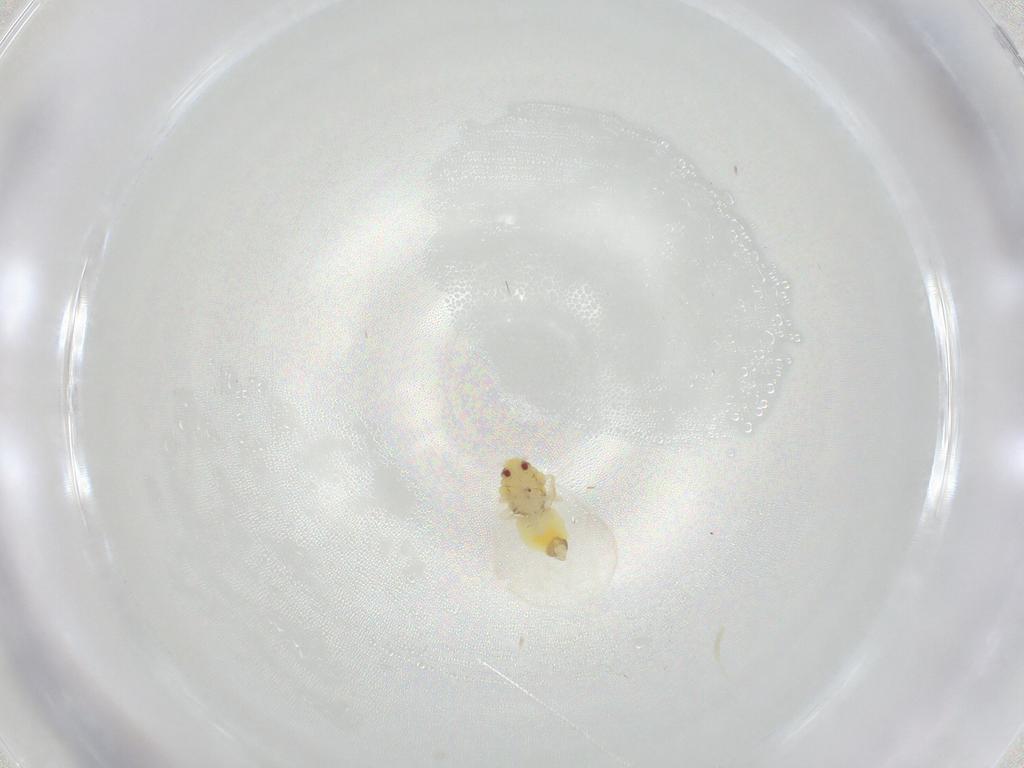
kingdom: Animalia
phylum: Arthropoda
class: Insecta
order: Hemiptera
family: Aleyrodidae
